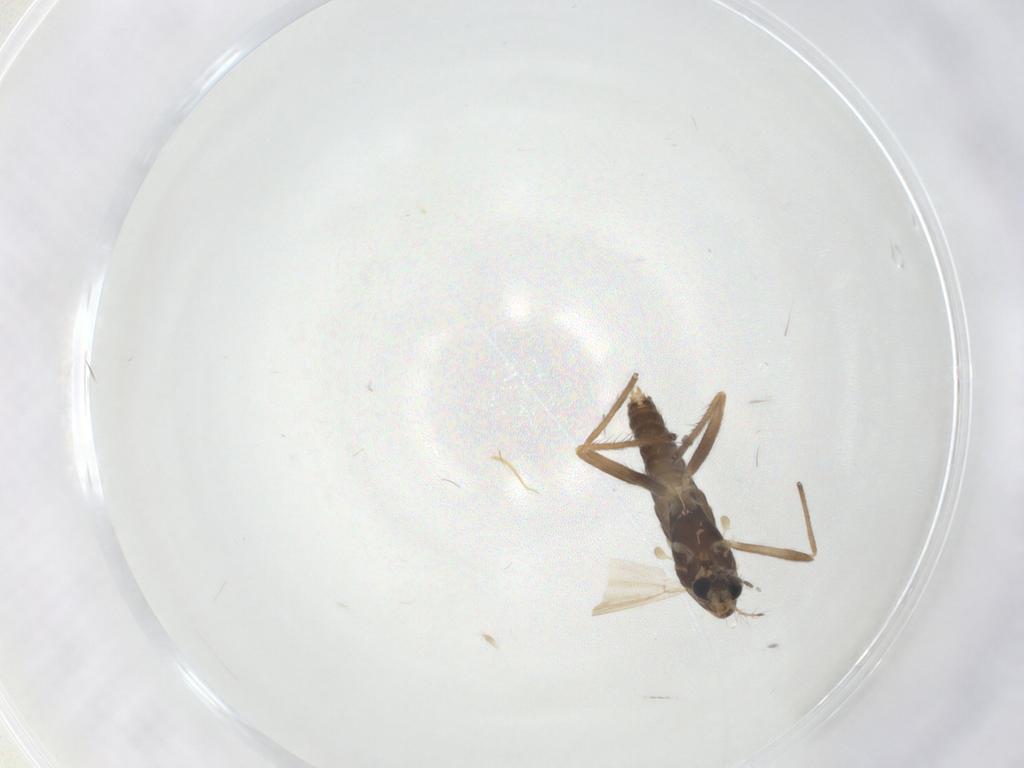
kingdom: Animalia
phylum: Arthropoda
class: Insecta
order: Diptera
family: Chironomidae
